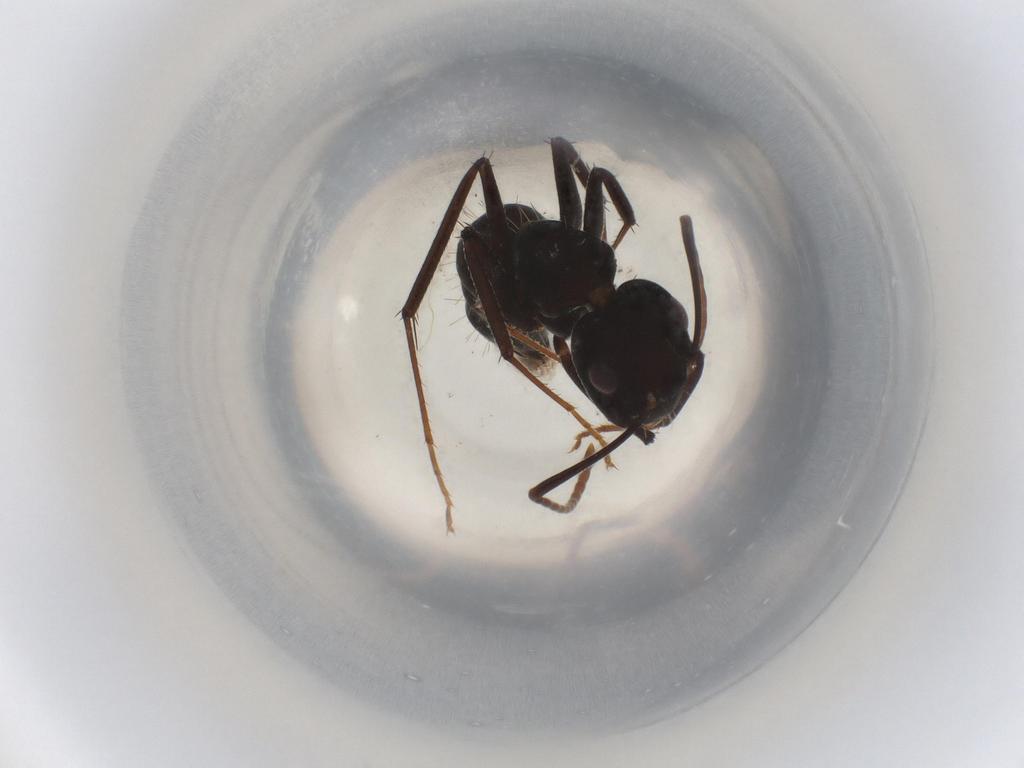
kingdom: Animalia
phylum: Arthropoda
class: Insecta
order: Hymenoptera
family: Formicidae
